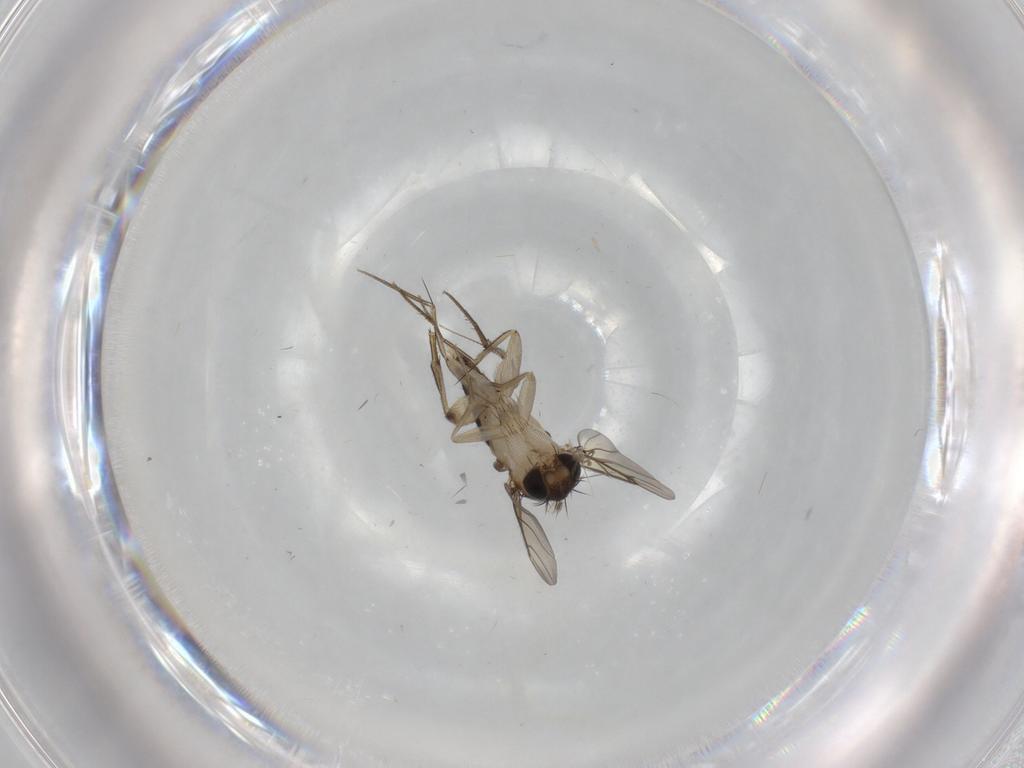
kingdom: Animalia
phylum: Arthropoda
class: Insecta
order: Diptera
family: Phoridae
